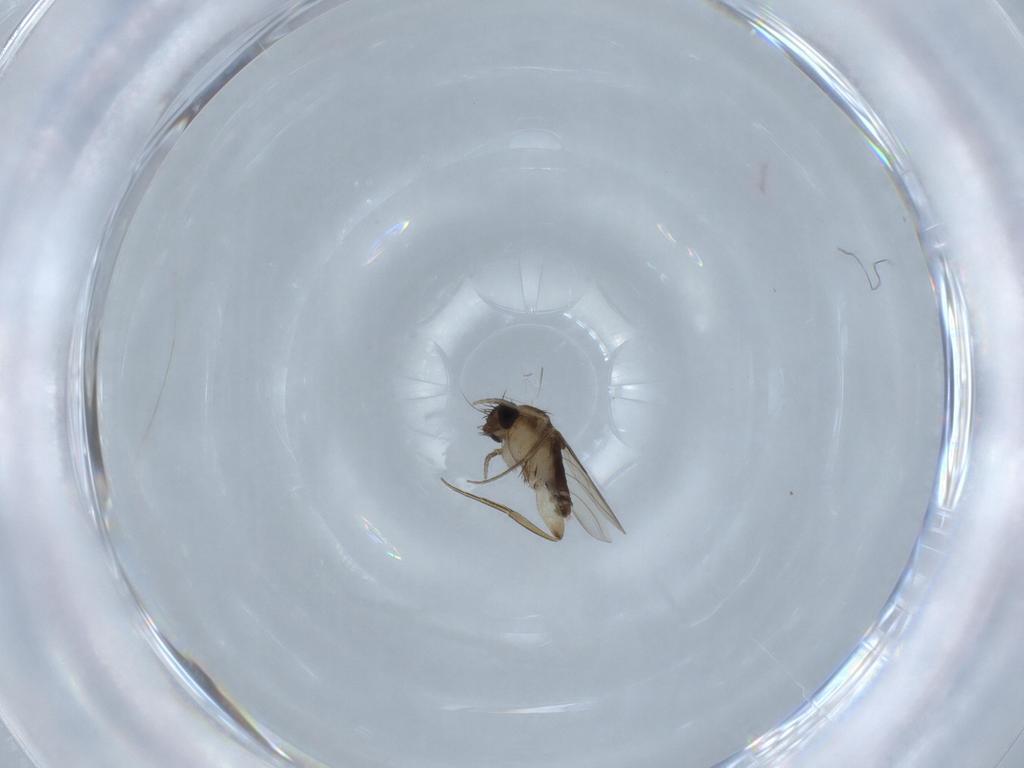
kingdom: Animalia
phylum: Arthropoda
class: Insecta
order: Diptera
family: Phoridae
